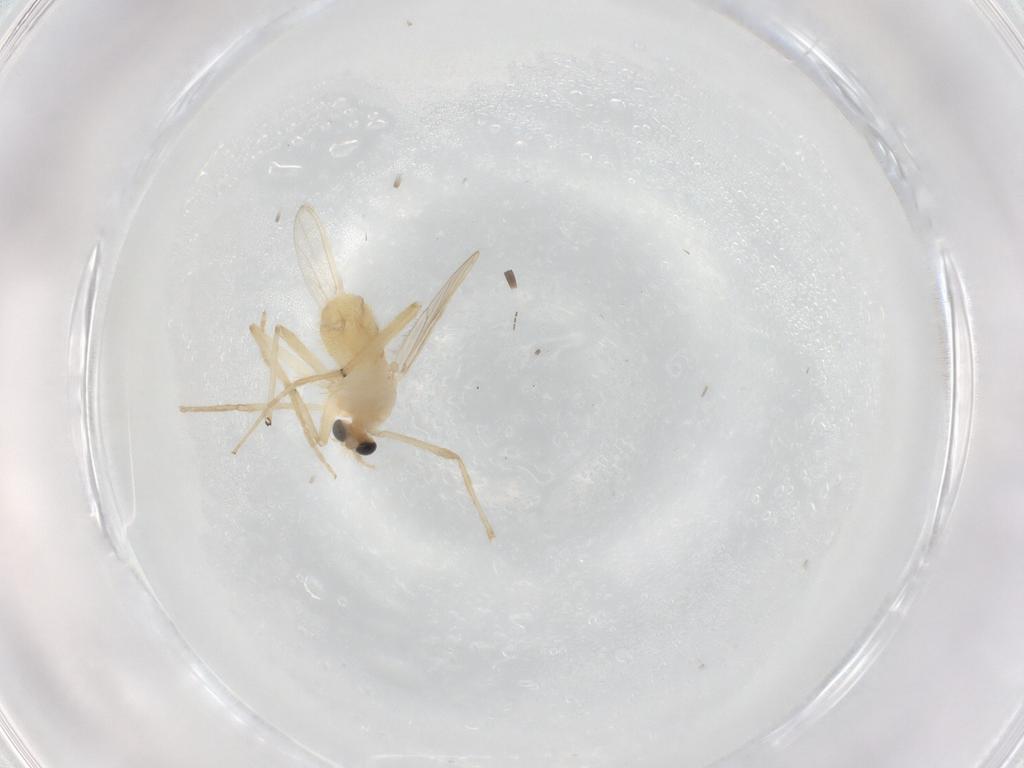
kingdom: Animalia
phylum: Arthropoda
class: Insecta
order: Diptera
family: Chironomidae
